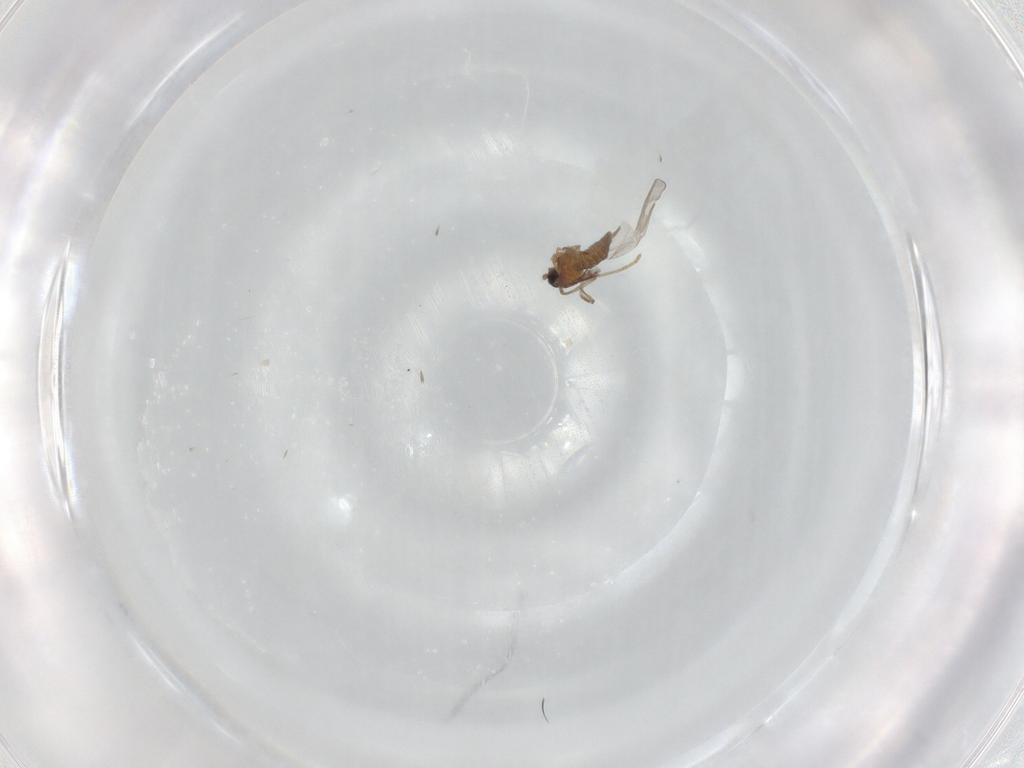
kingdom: Animalia
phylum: Arthropoda
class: Insecta
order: Diptera
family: Cecidomyiidae
